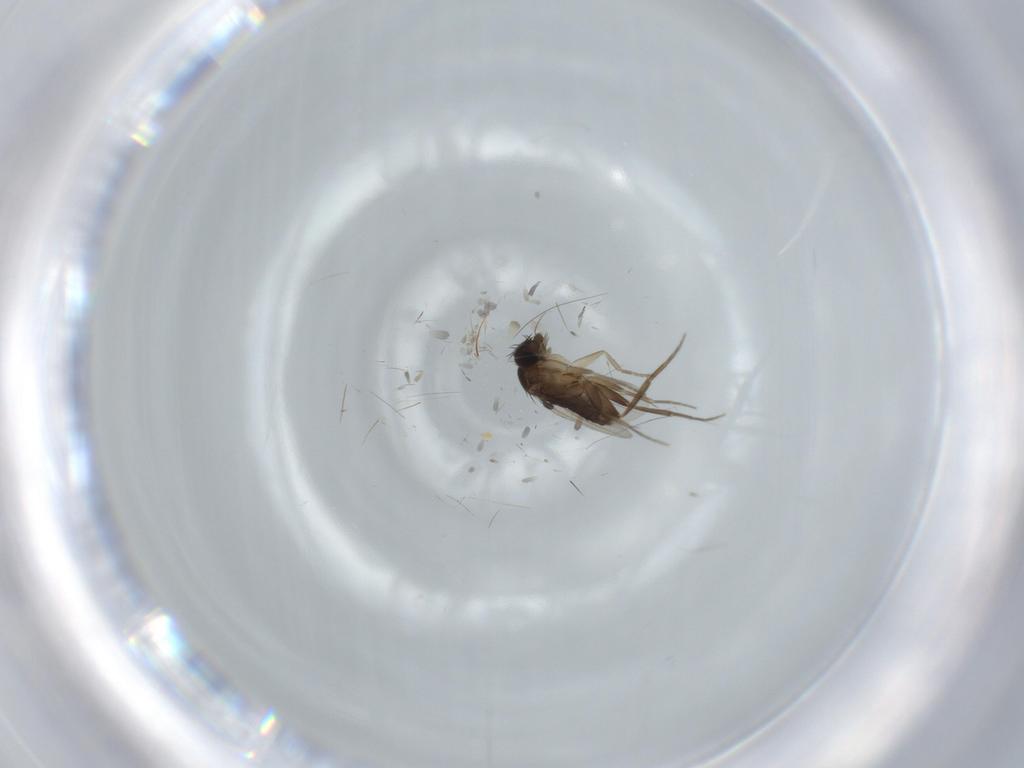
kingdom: Animalia
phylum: Arthropoda
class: Insecta
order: Diptera
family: Phoridae
